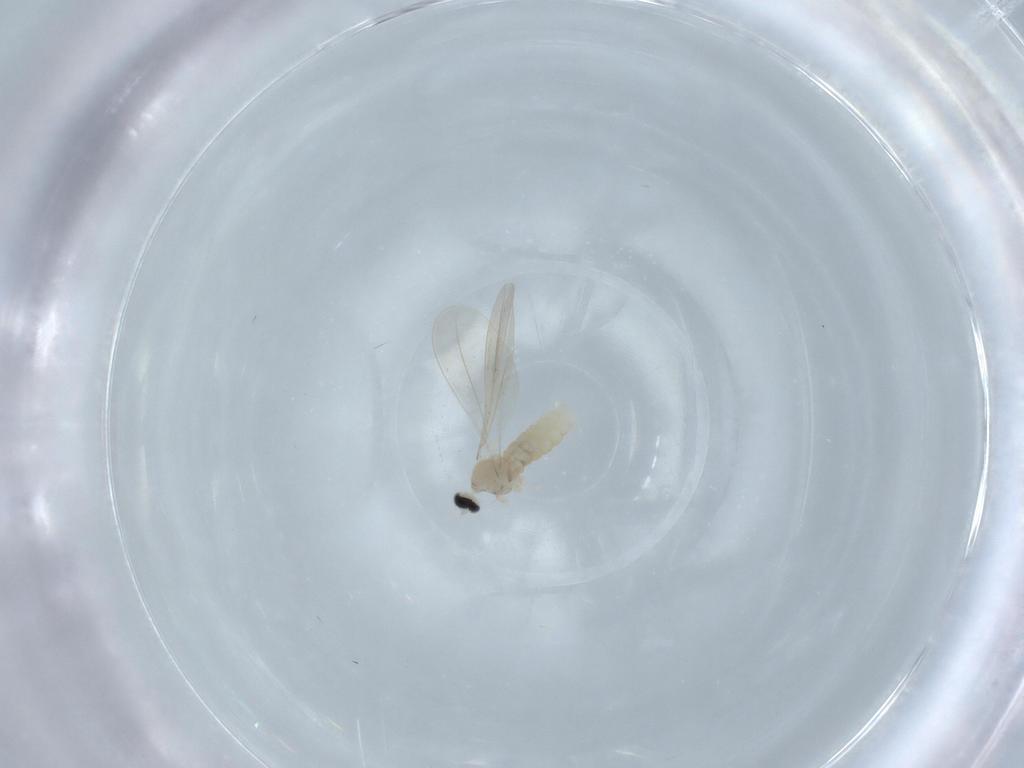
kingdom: Animalia
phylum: Arthropoda
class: Insecta
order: Diptera
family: Cecidomyiidae
